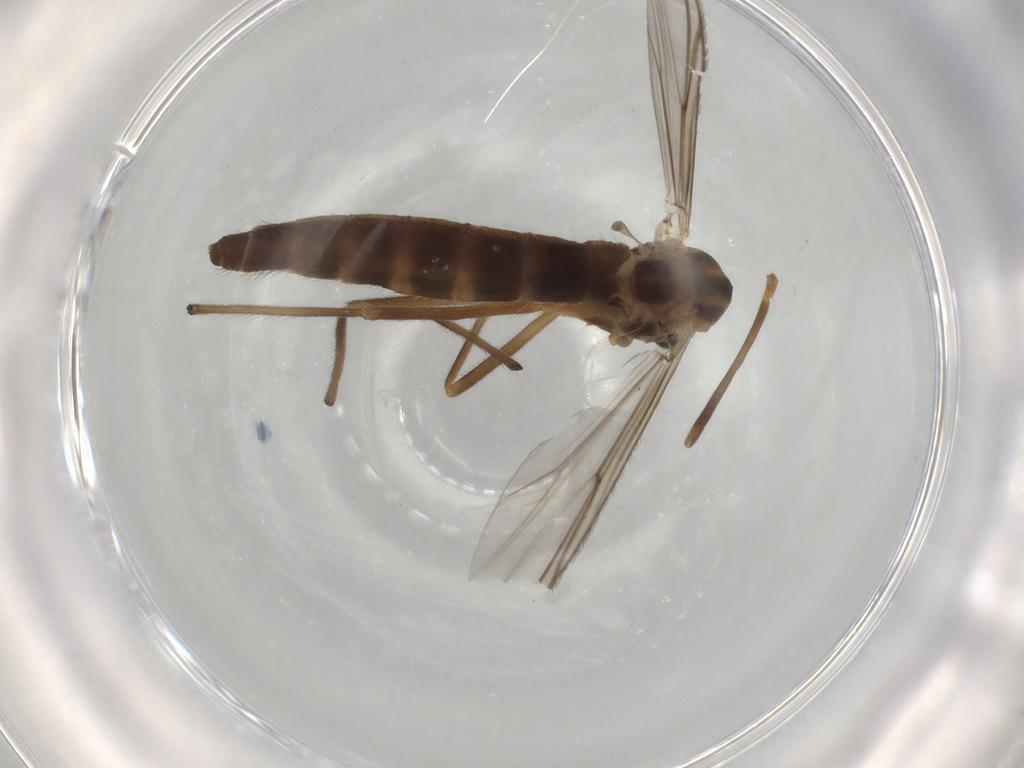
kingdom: Animalia
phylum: Arthropoda
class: Insecta
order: Diptera
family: Chironomidae
